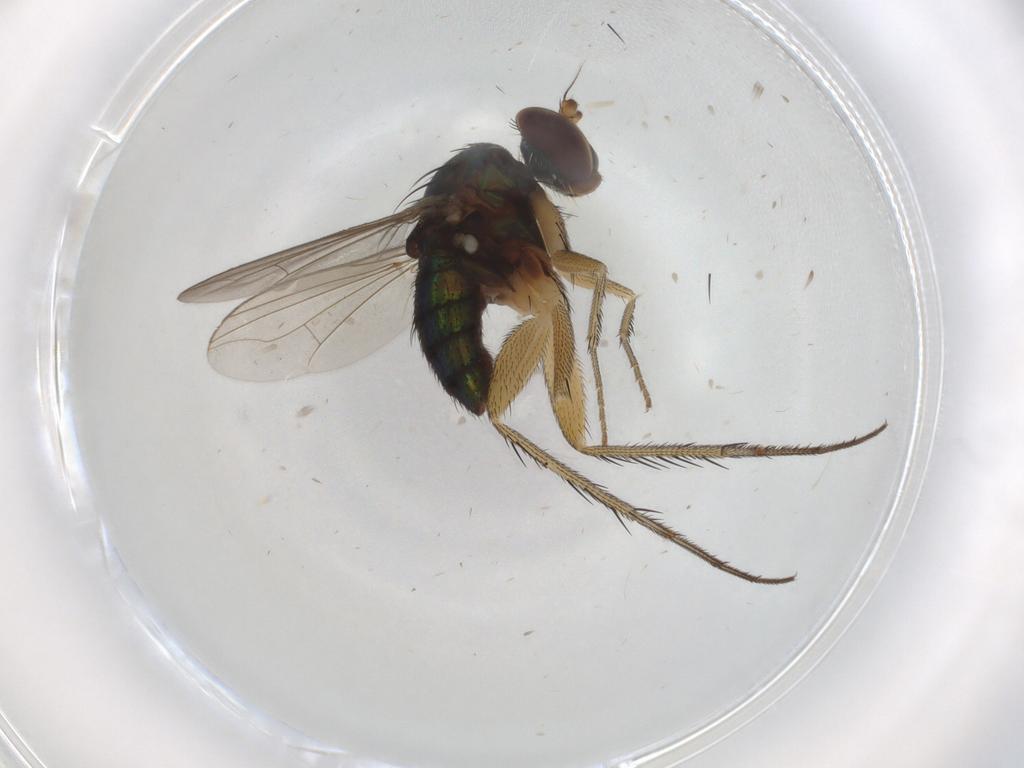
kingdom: Animalia
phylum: Arthropoda
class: Insecta
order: Diptera
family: Dolichopodidae
